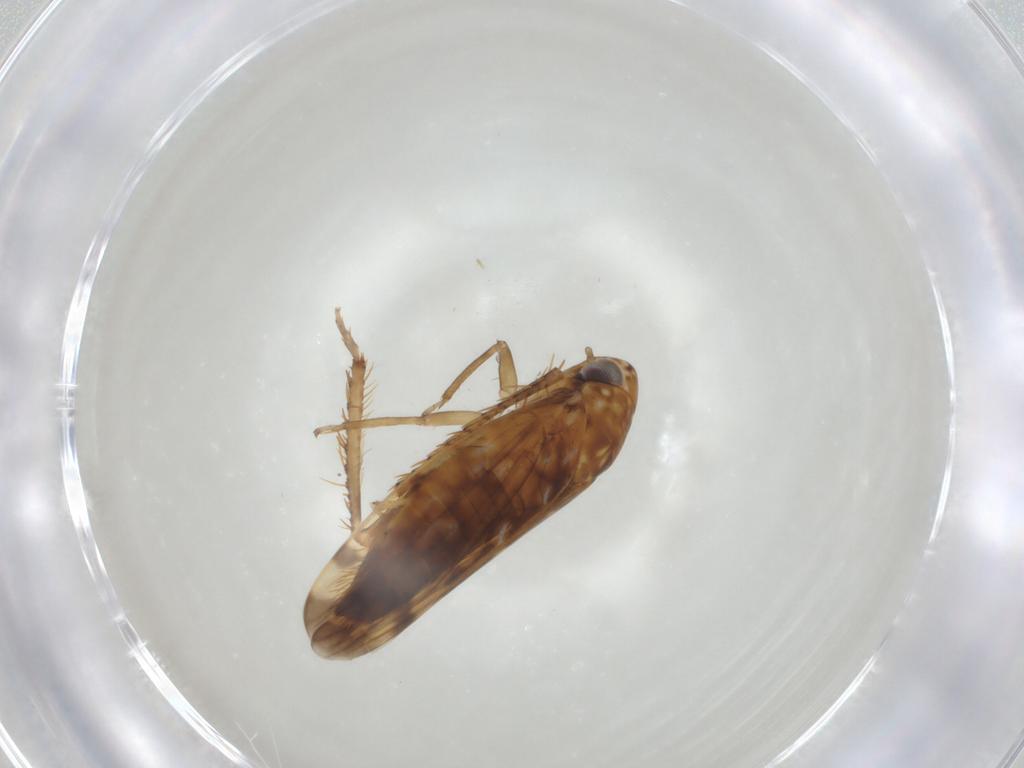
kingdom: Animalia
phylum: Arthropoda
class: Insecta
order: Hemiptera
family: Cicadellidae
